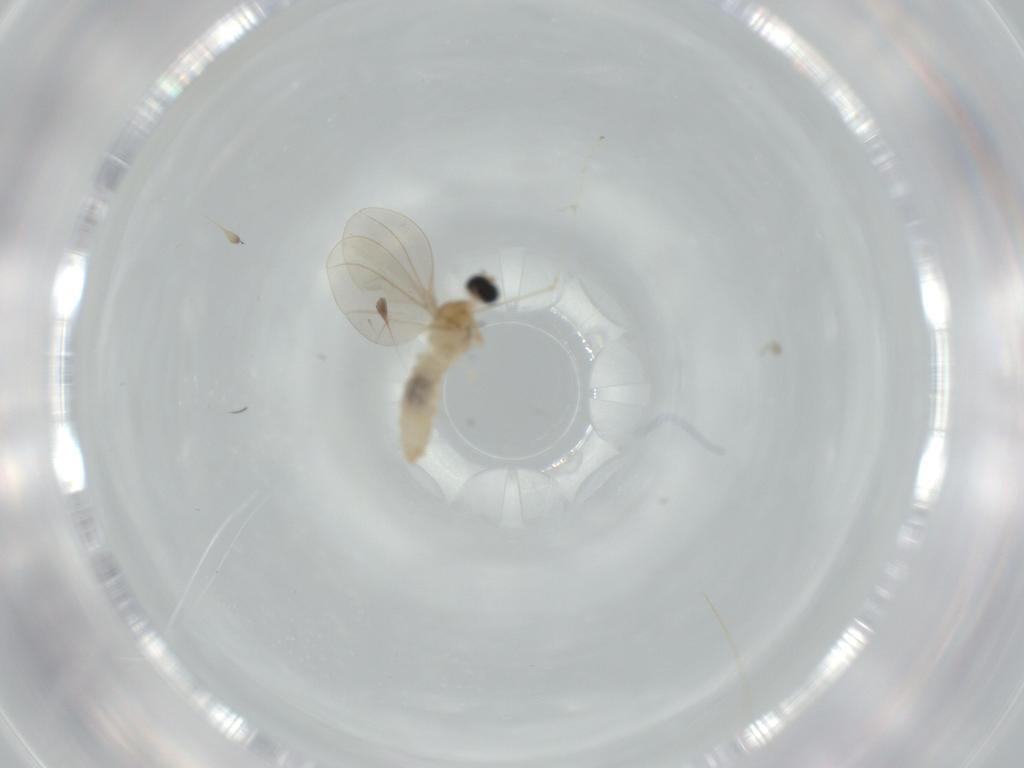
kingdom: Animalia
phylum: Arthropoda
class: Insecta
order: Diptera
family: Cecidomyiidae
